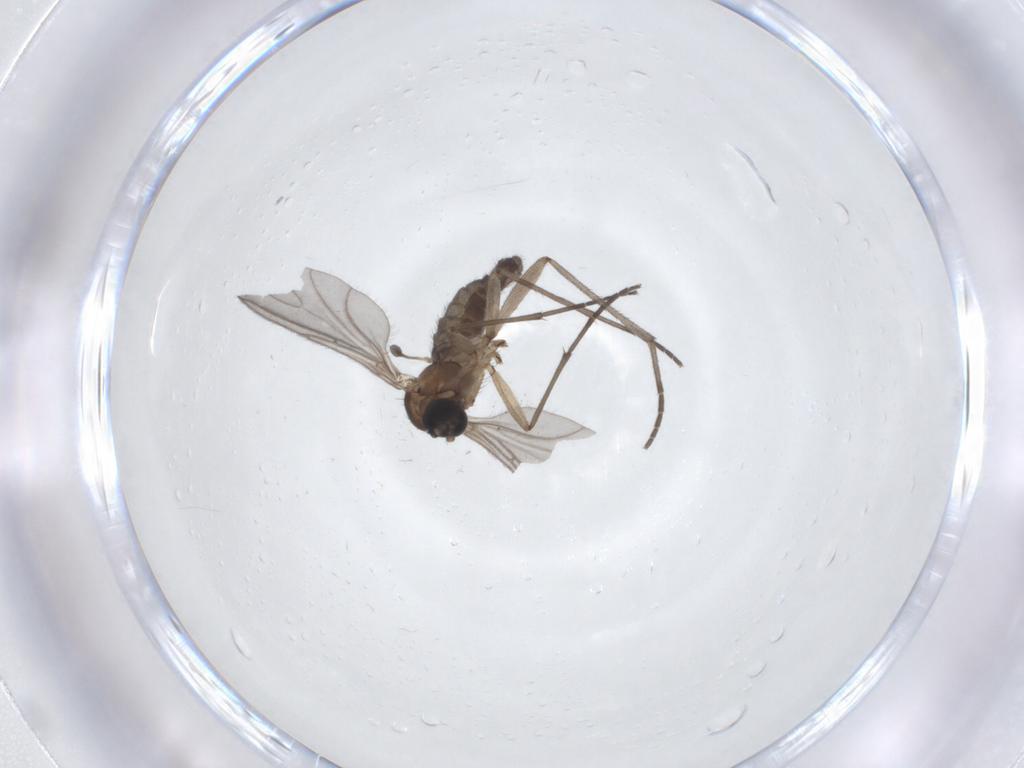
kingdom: Animalia
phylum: Arthropoda
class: Insecta
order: Diptera
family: Sciaridae
